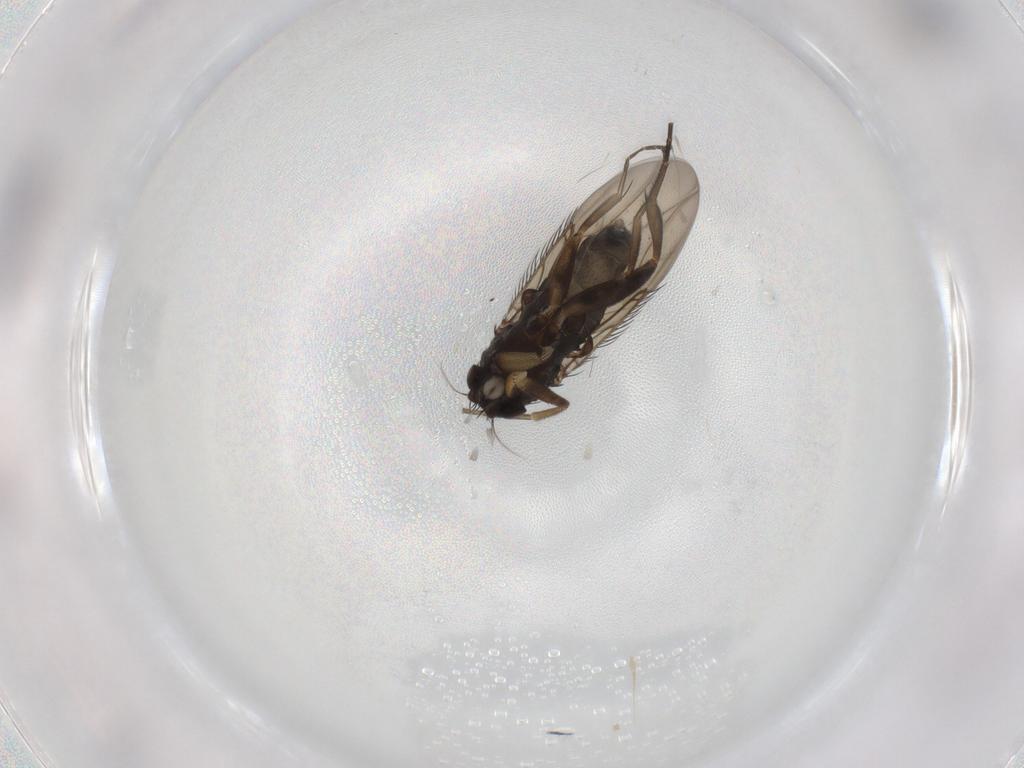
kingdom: Animalia
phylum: Arthropoda
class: Insecta
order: Diptera
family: Phoridae
